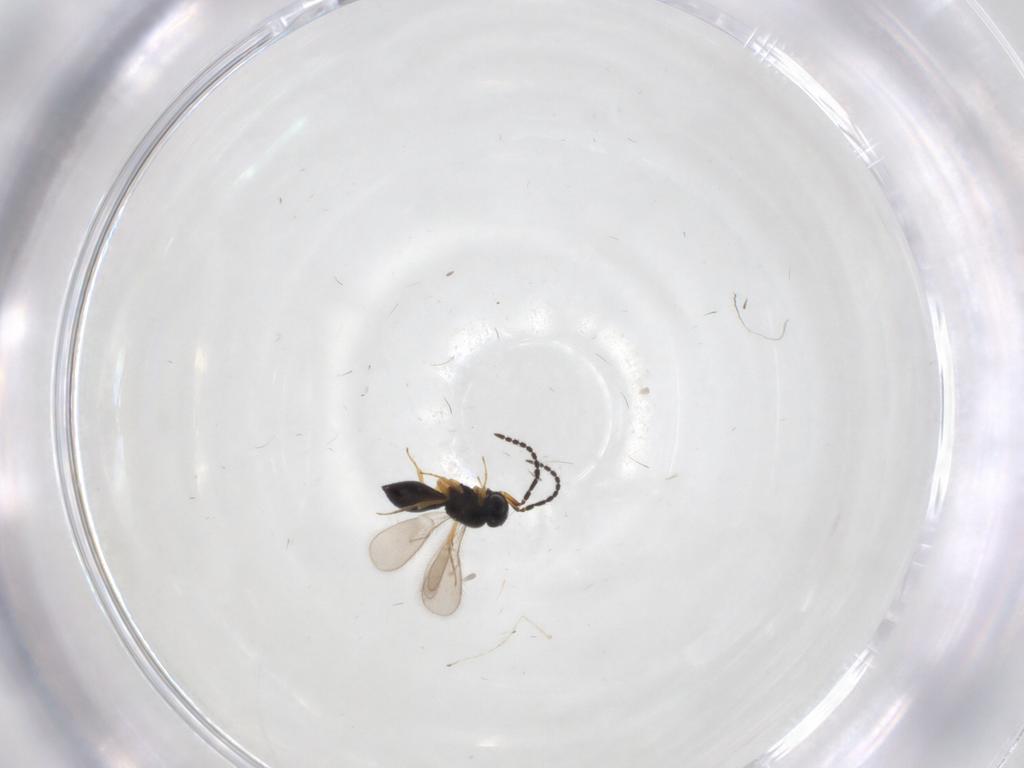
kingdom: Animalia
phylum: Arthropoda
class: Insecta
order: Hymenoptera
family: Scelionidae
